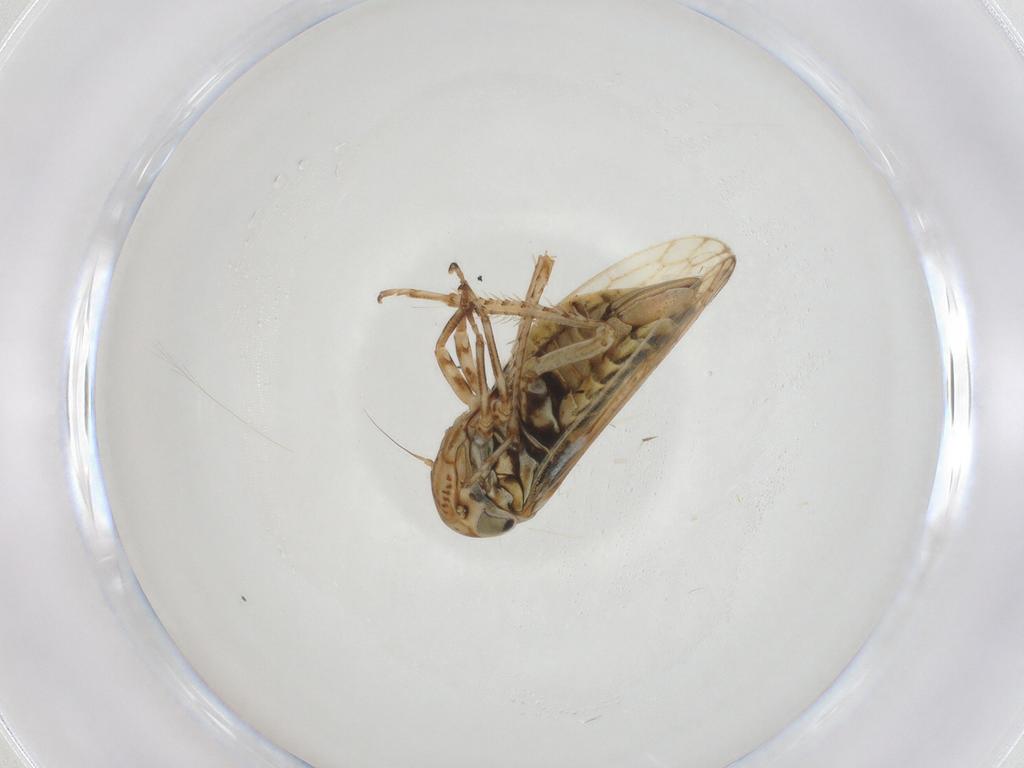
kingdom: Animalia
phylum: Arthropoda
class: Insecta
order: Hemiptera
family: Cicadellidae
